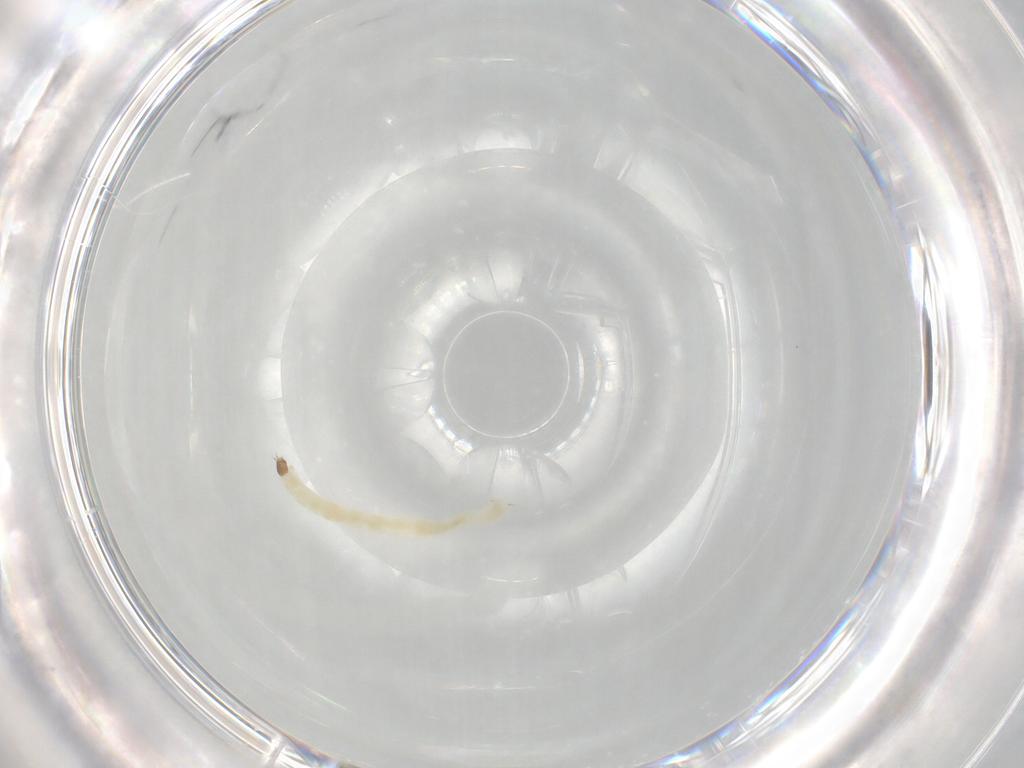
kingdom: Animalia
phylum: Arthropoda
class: Insecta
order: Diptera
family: Chironomidae
